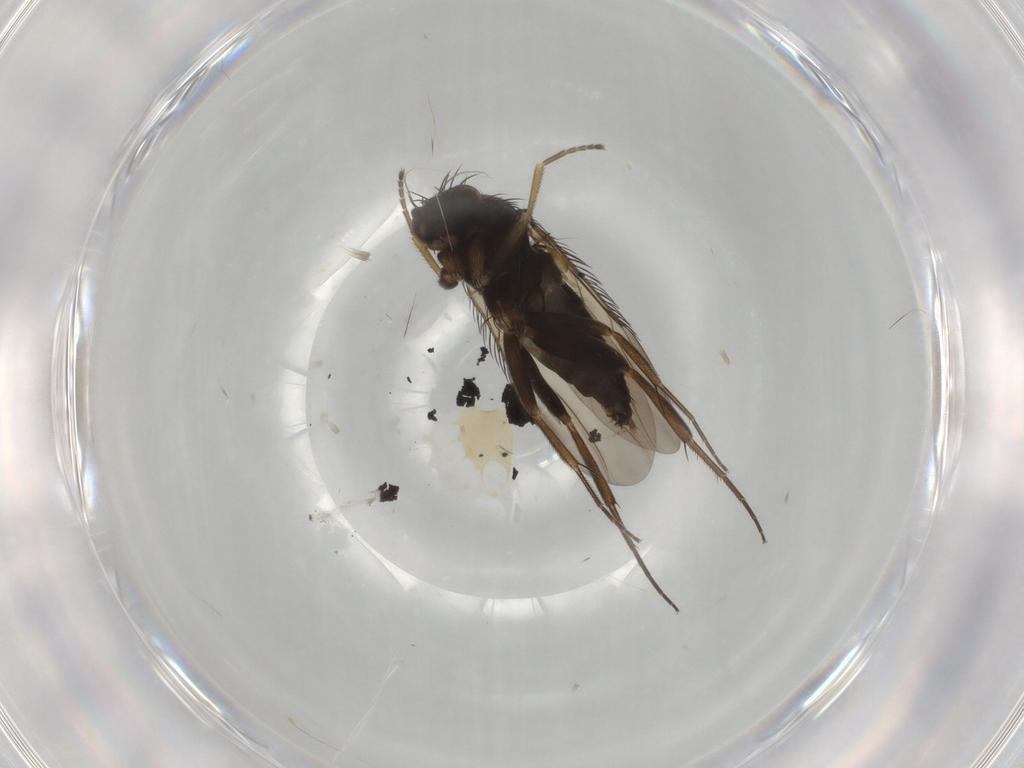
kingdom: Animalia
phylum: Arthropoda
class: Insecta
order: Diptera
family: Phoridae
